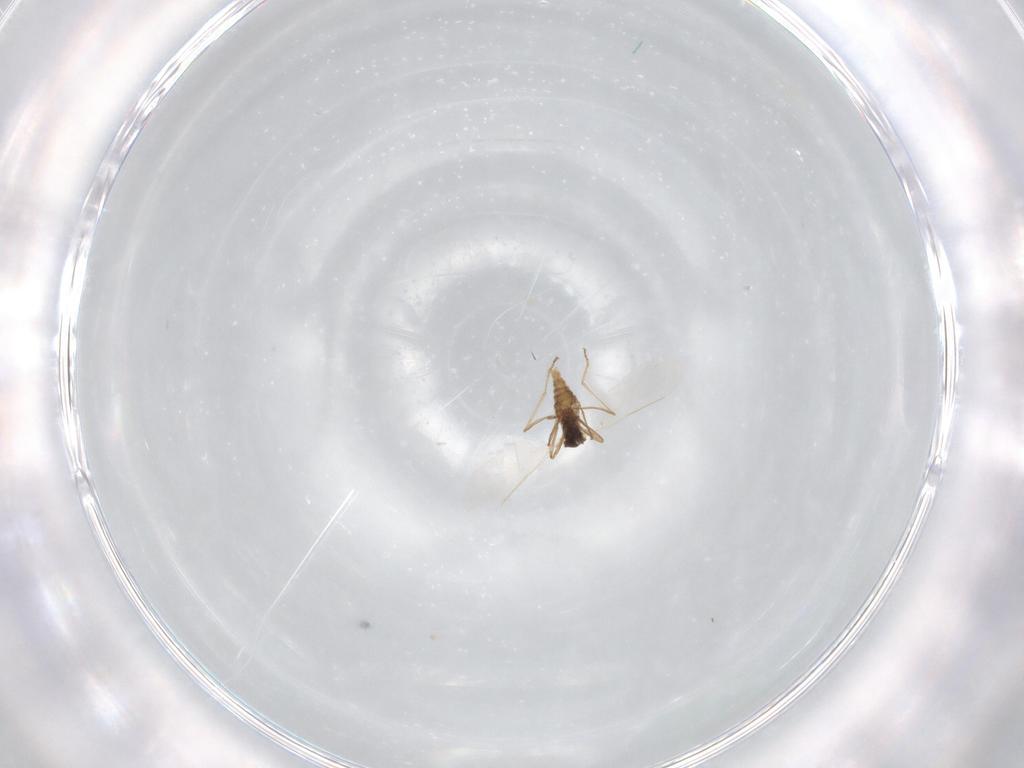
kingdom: Animalia
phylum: Arthropoda
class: Insecta
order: Diptera
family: Cecidomyiidae
